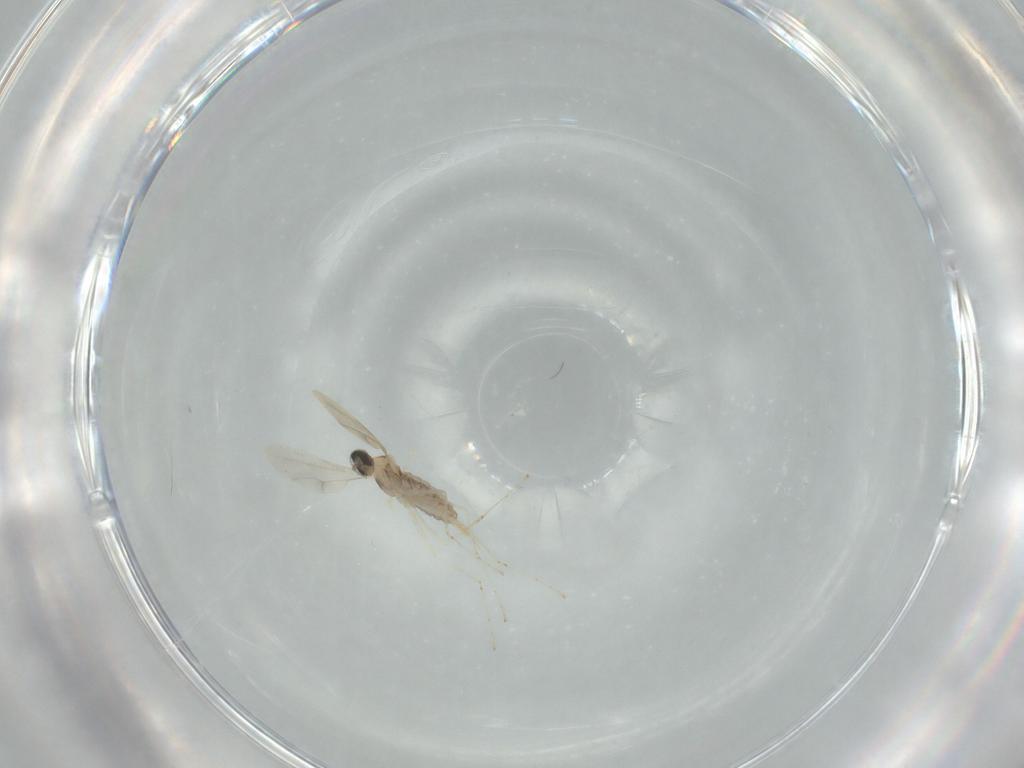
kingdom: Animalia
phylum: Arthropoda
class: Insecta
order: Diptera
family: Cecidomyiidae
